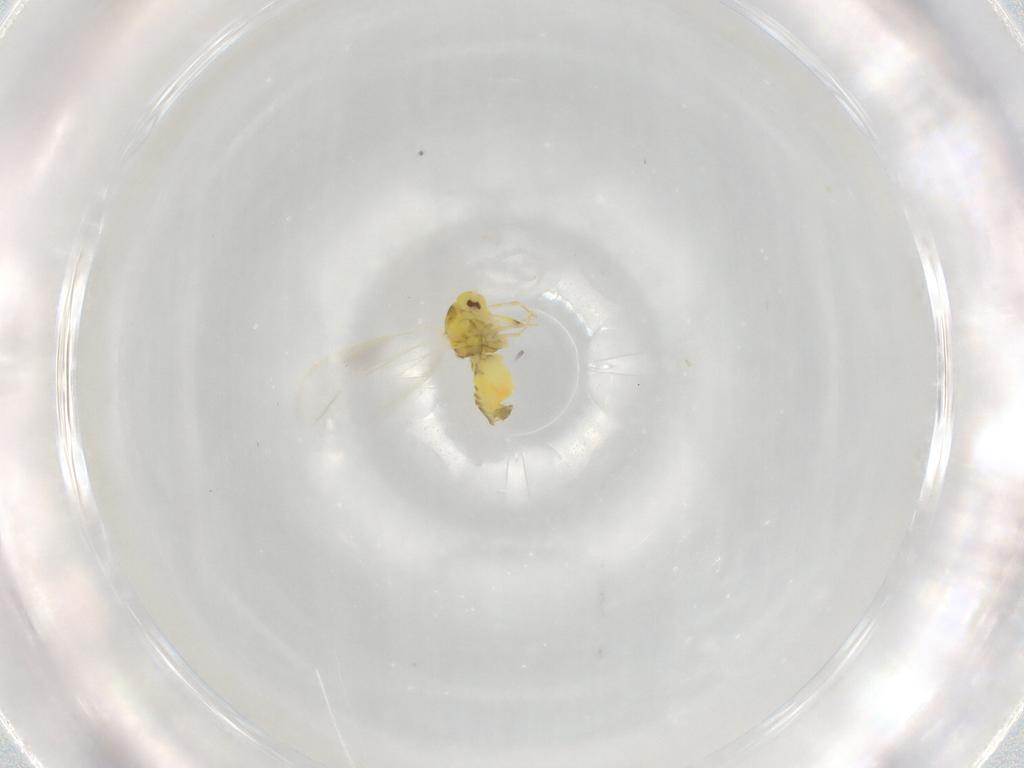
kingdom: Animalia
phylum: Arthropoda
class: Insecta
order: Hemiptera
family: Aleyrodidae
